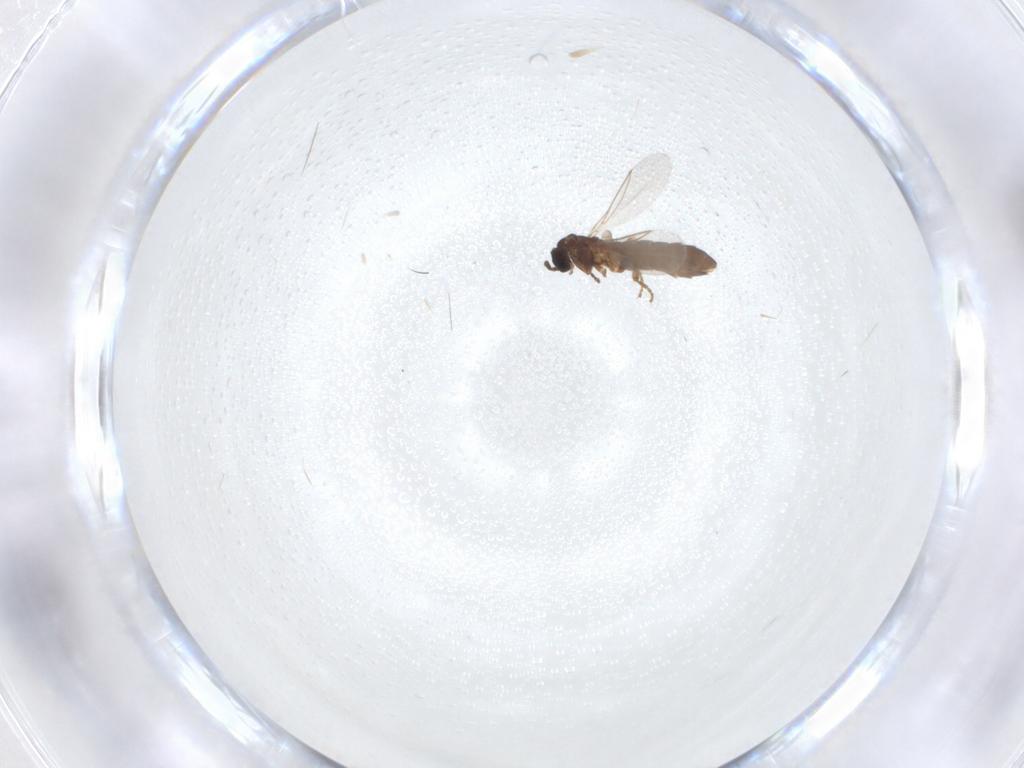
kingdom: Animalia
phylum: Arthropoda
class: Insecta
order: Diptera
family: Scatopsidae
